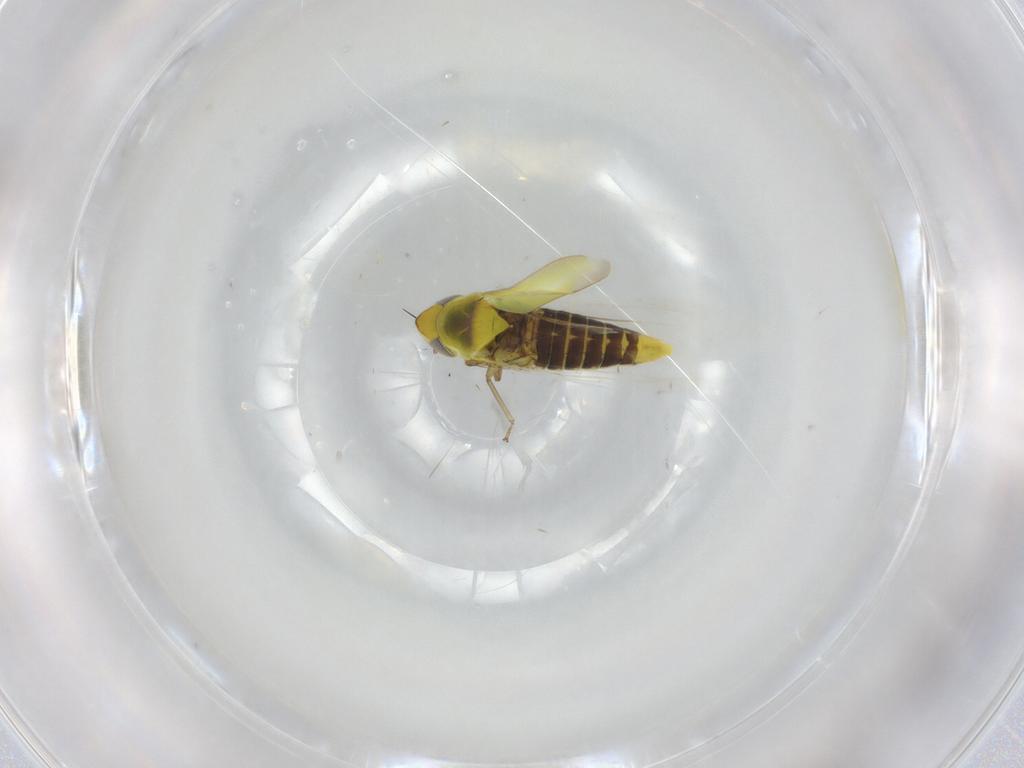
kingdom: Animalia
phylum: Arthropoda
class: Insecta
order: Hemiptera
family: Cicadellidae
